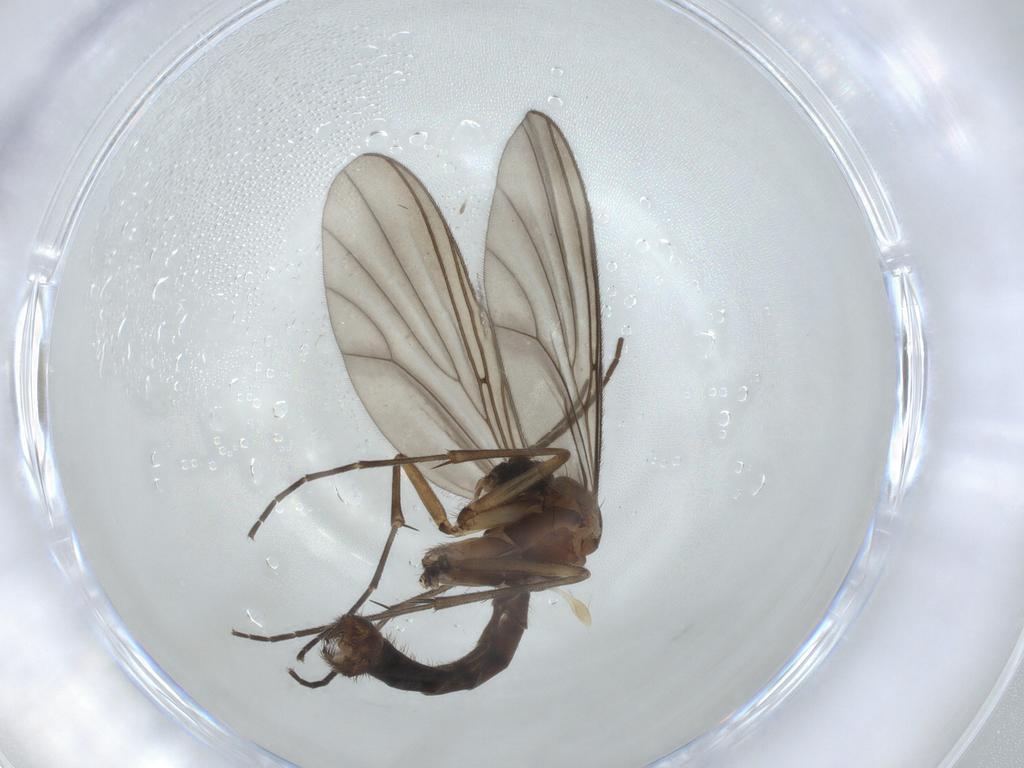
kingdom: Animalia
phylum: Arthropoda
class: Insecta
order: Diptera
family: Mycetophilidae
